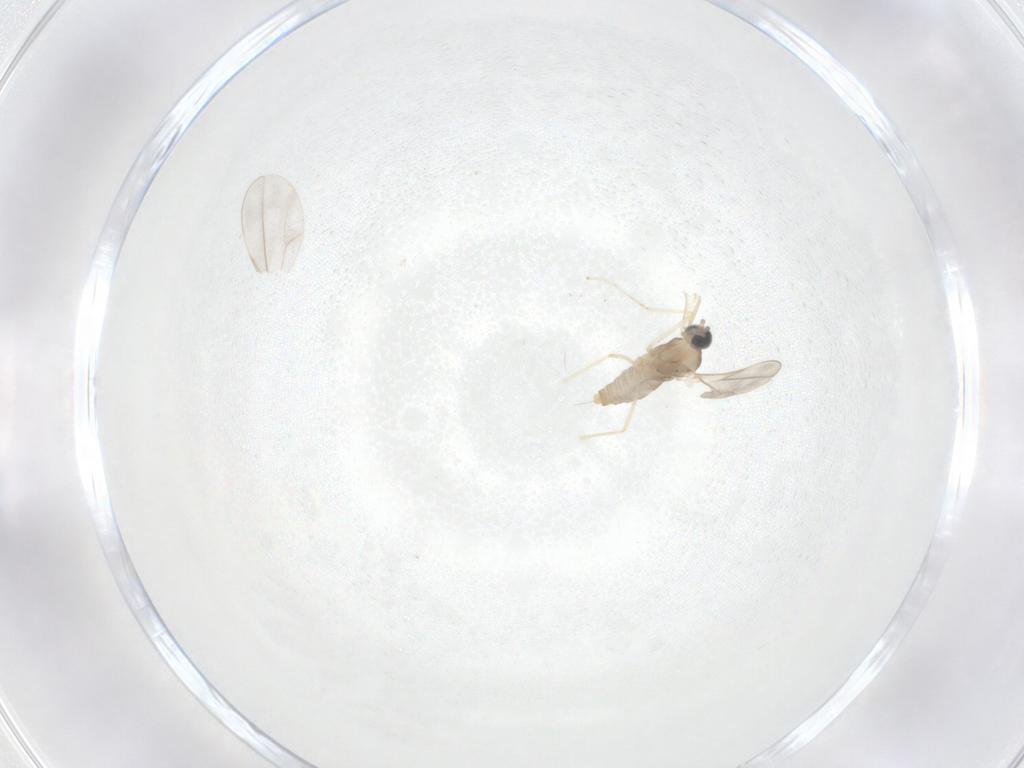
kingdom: Animalia
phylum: Arthropoda
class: Insecta
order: Diptera
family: Cecidomyiidae
